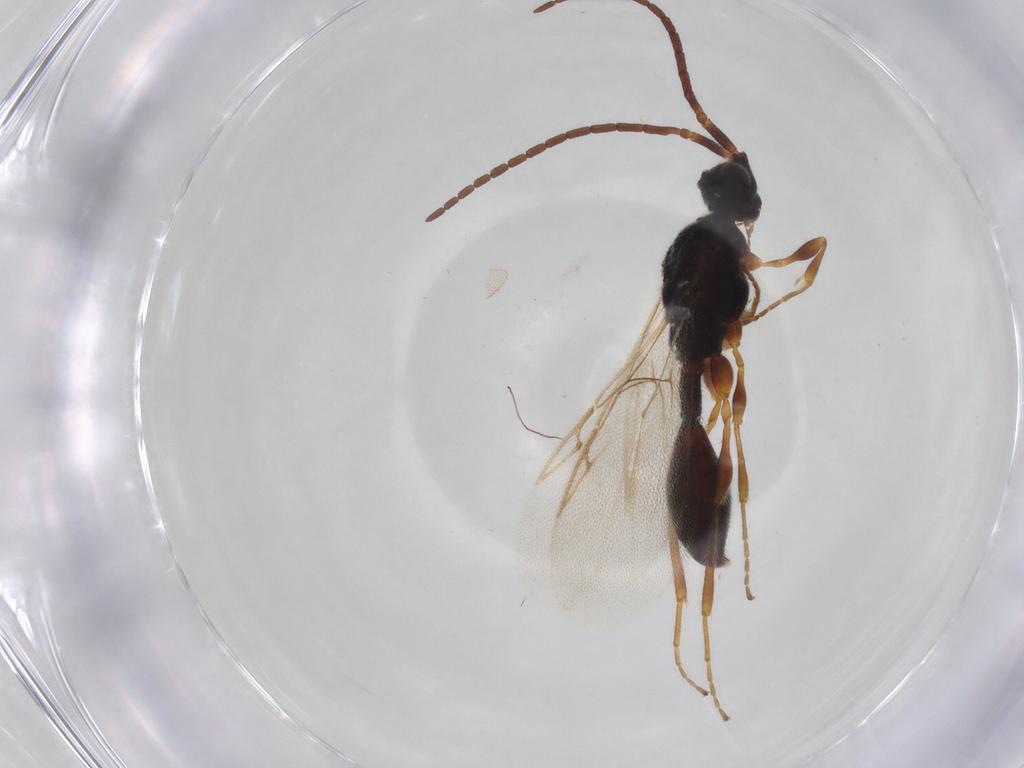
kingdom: Animalia
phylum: Arthropoda
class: Insecta
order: Hymenoptera
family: Diapriidae
